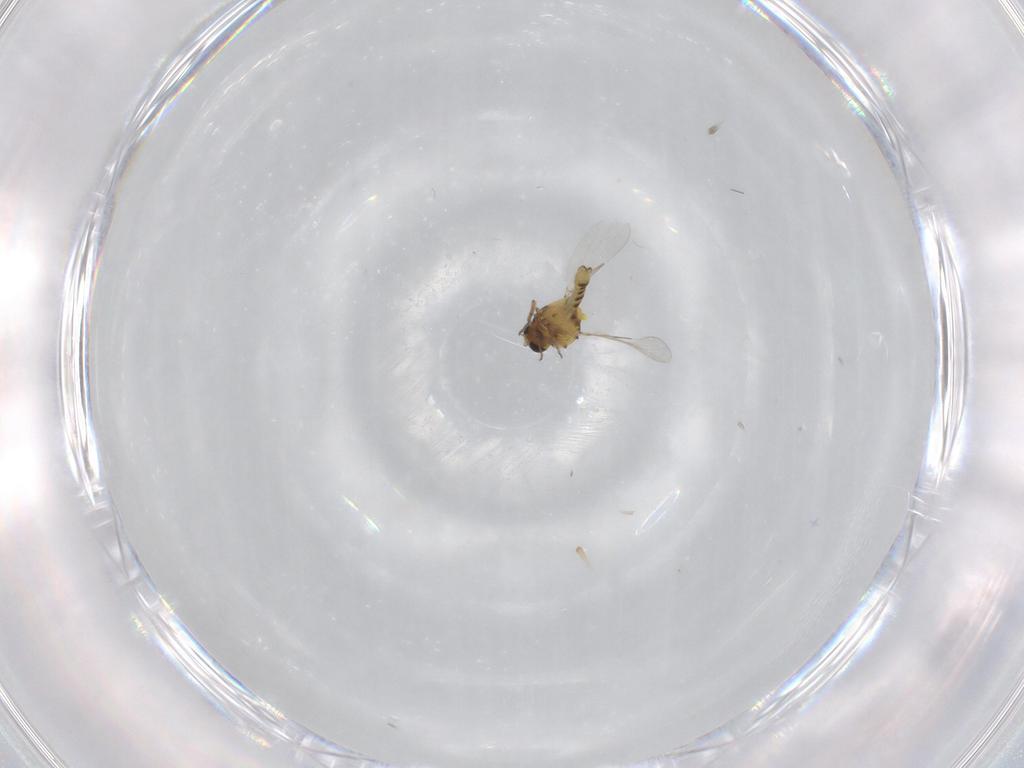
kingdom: Animalia
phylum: Arthropoda
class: Insecta
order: Diptera
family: Ceratopogonidae
